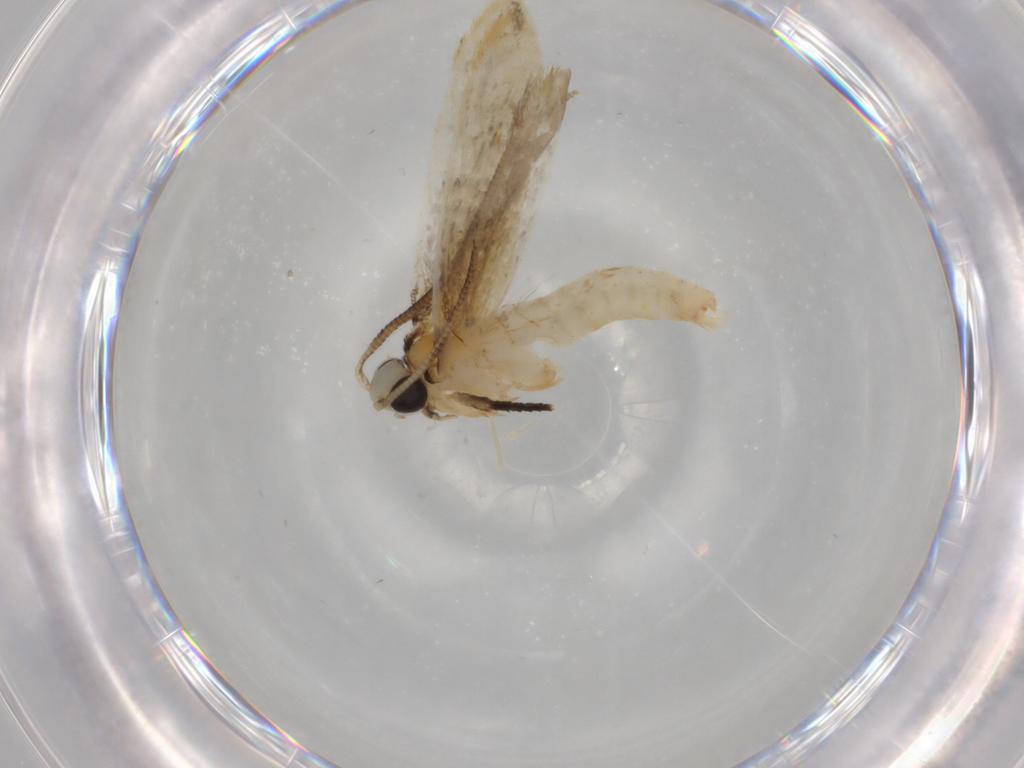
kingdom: Animalia
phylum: Arthropoda
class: Insecta
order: Lepidoptera
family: Tineidae
